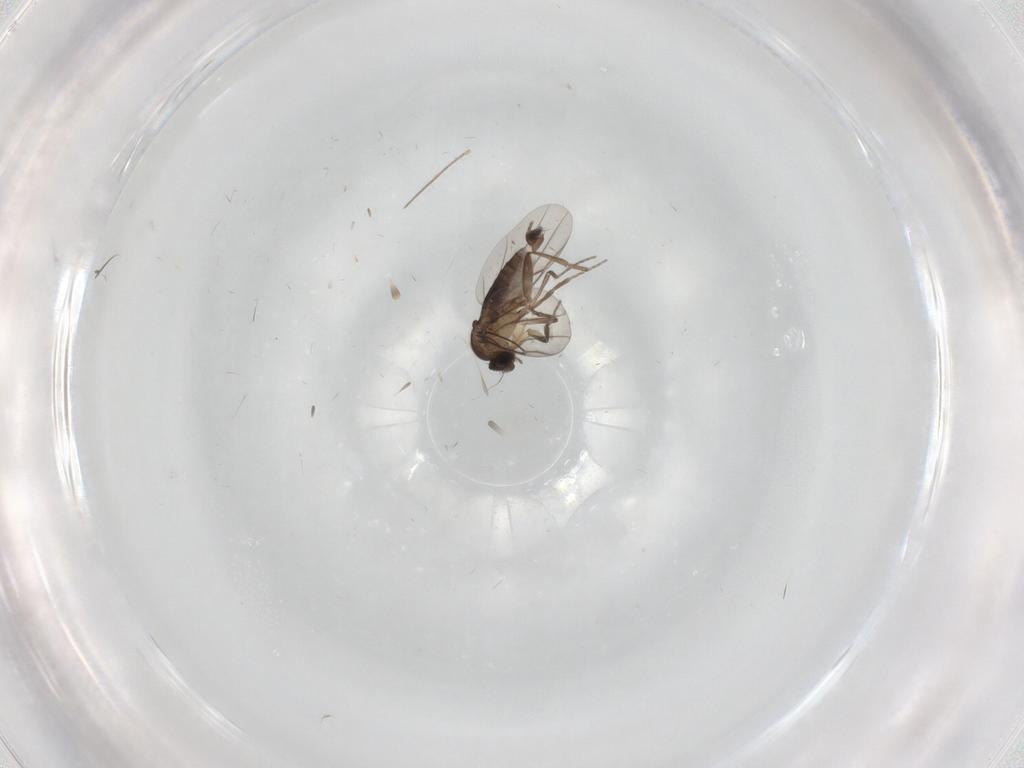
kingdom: Animalia
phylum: Arthropoda
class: Insecta
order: Diptera
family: Phoridae
